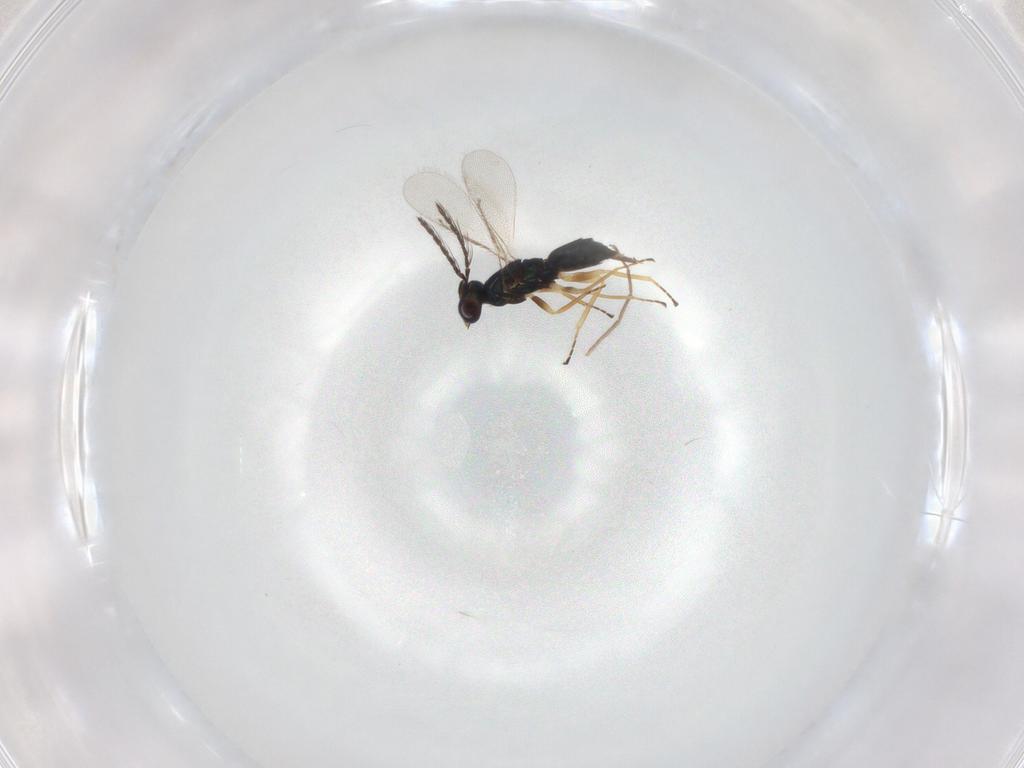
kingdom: Animalia
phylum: Arthropoda
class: Insecta
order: Hymenoptera
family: Eulophidae
